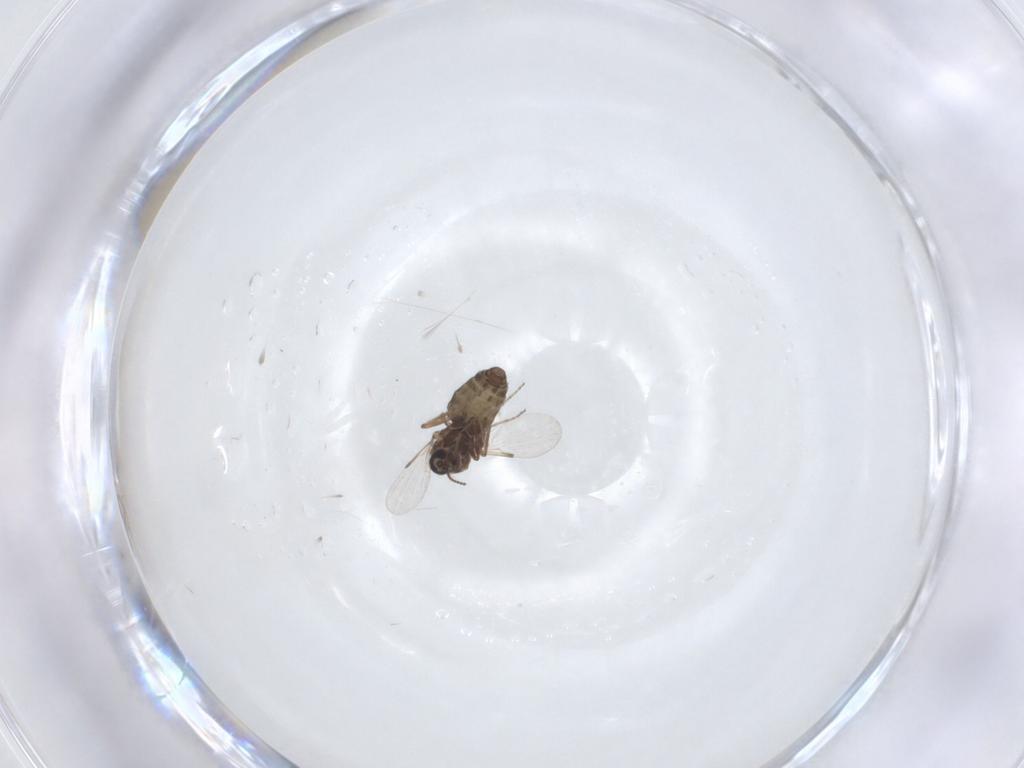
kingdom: Animalia
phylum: Arthropoda
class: Insecta
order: Diptera
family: Ceratopogonidae
